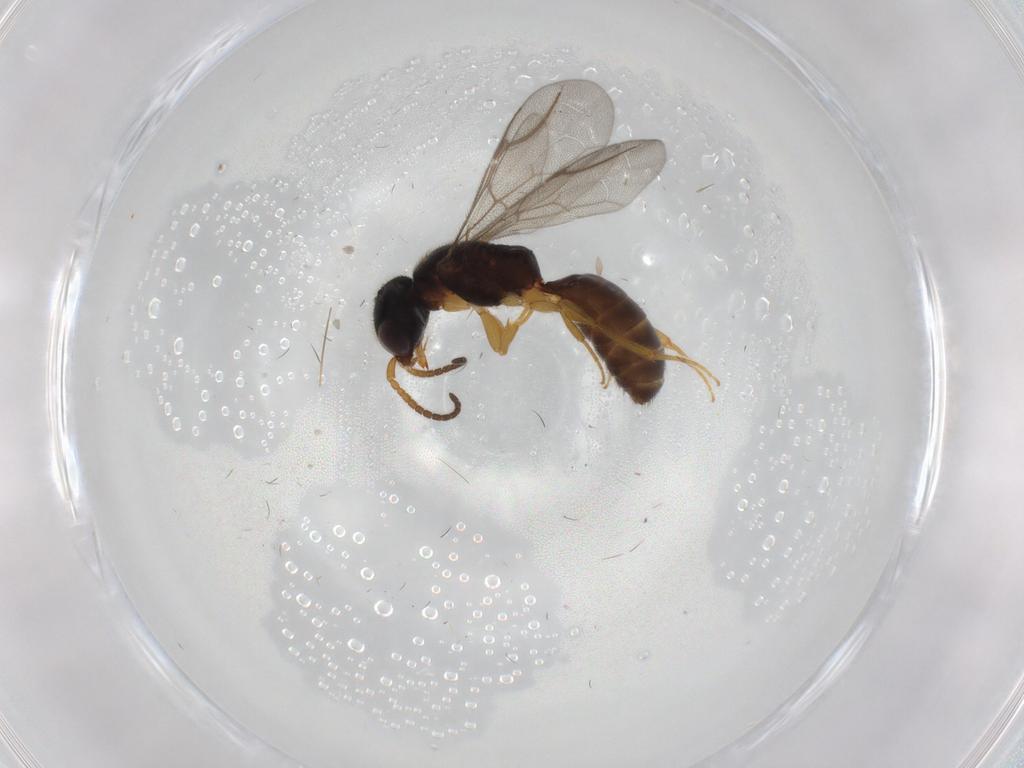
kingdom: Animalia
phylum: Arthropoda
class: Insecta
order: Hymenoptera
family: Bethylidae
